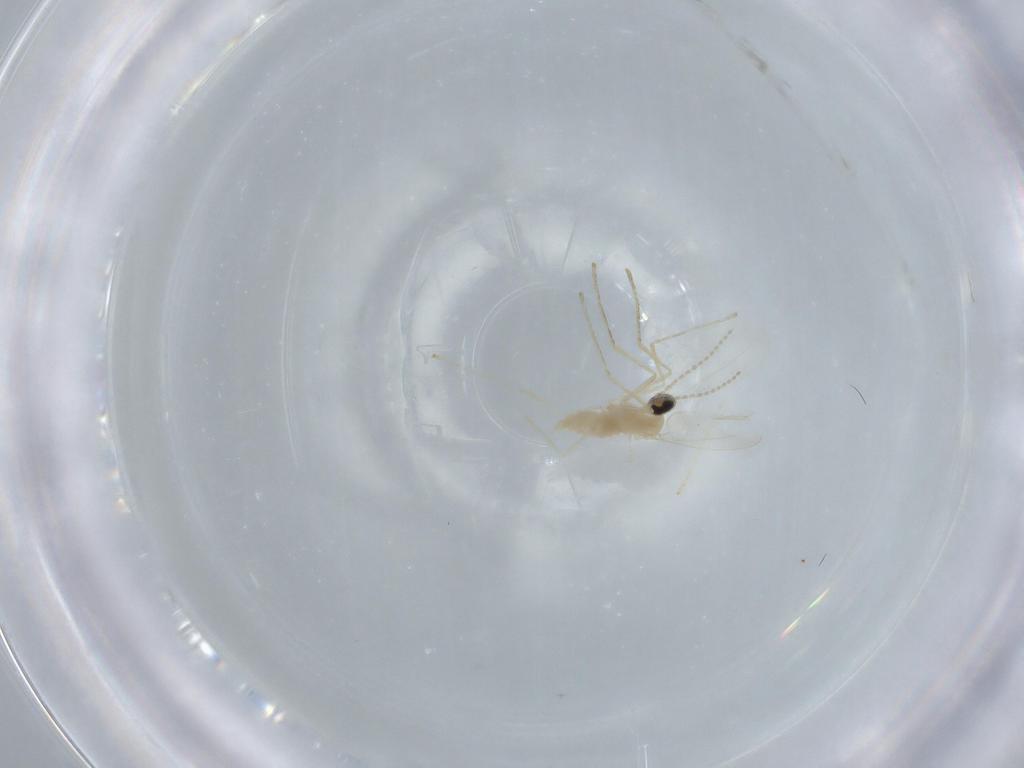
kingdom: Animalia
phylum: Arthropoda
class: Insecta
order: Diptera
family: Cecidomyiidae
